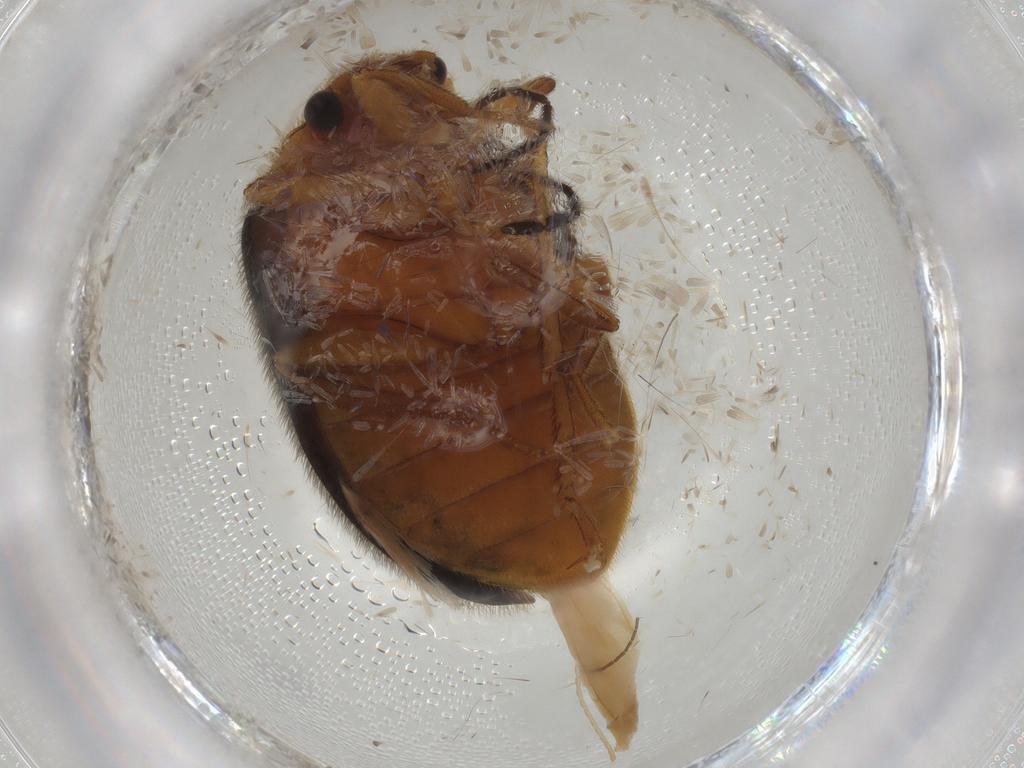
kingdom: Animalia
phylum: Arthropoda
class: Insecta
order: Coleoptera
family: Scirtidae
